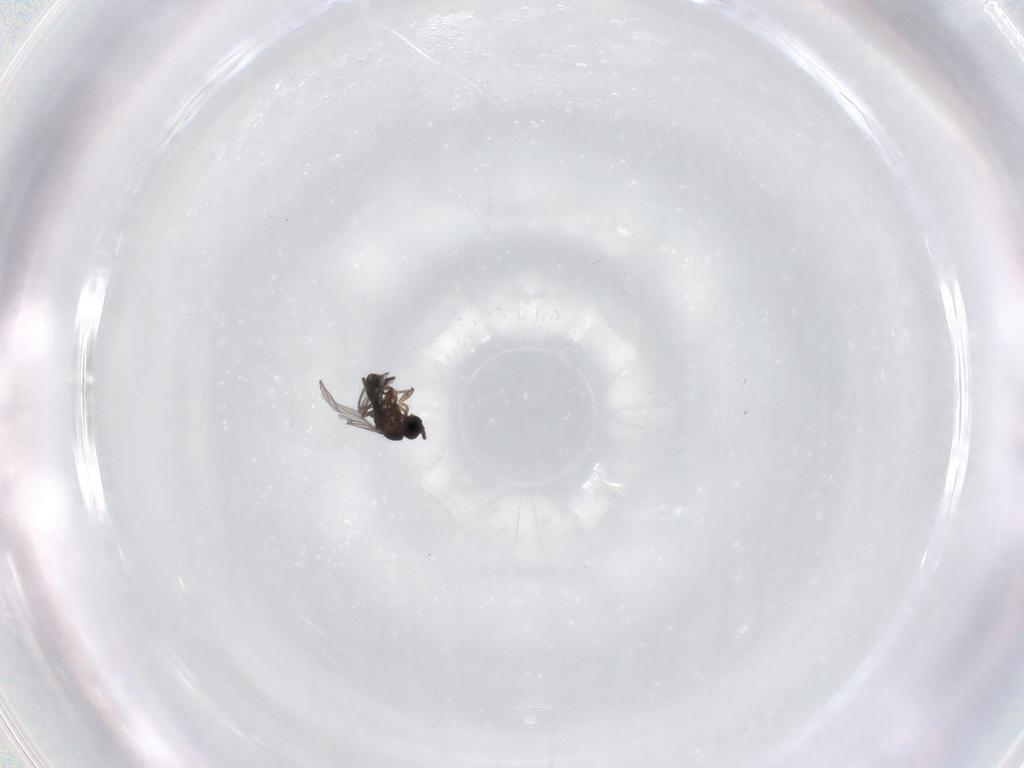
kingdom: Animalia
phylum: Arthropoda
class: Insecta
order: Diptera
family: Sciaridae
